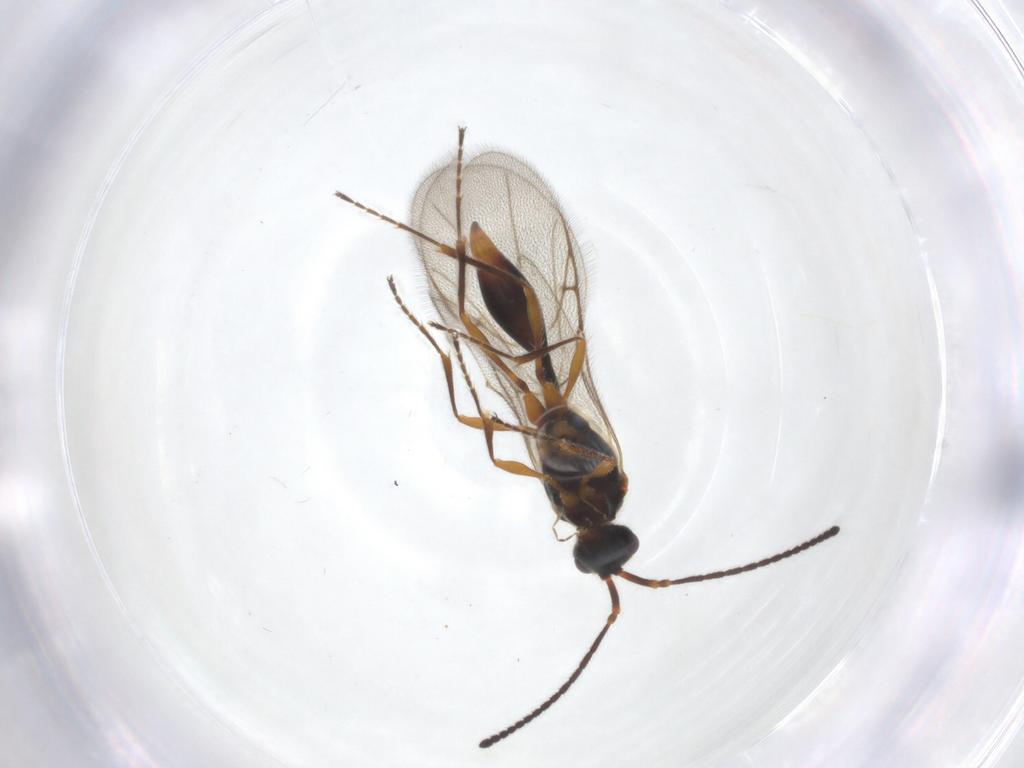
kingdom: Animalia
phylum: Arthropoda
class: Insecta
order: Hymenoptera
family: Diapriidae
